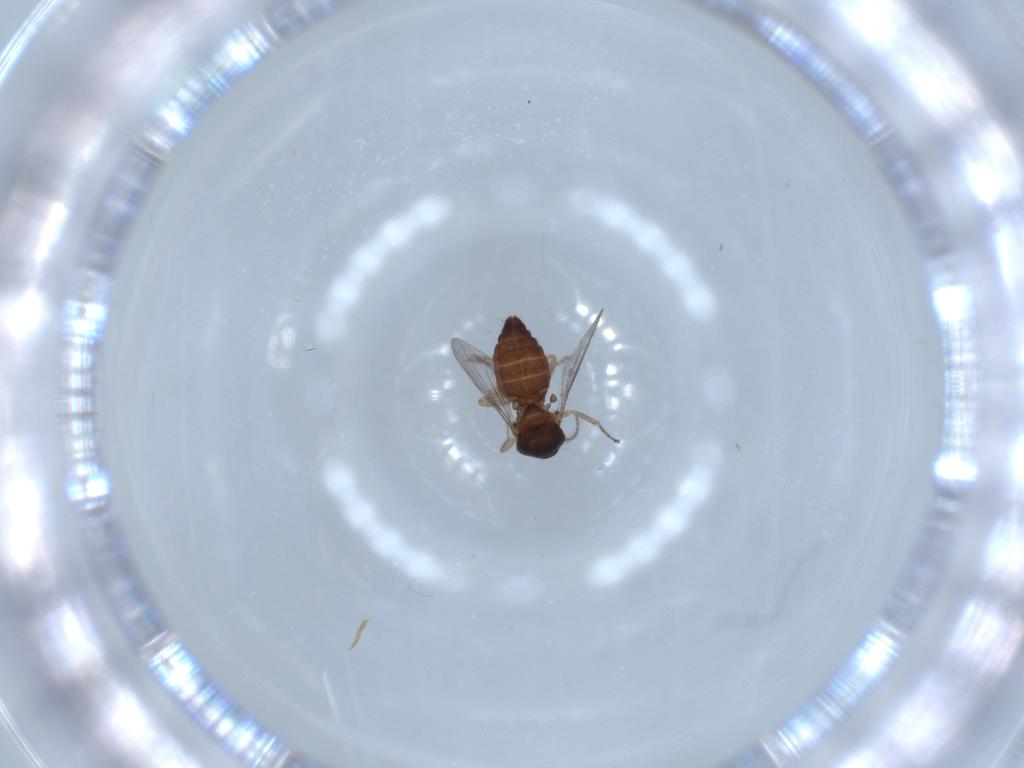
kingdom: Animalia
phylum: Arthropoda
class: Insecta
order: Diptera
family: Ceratopogonidae
